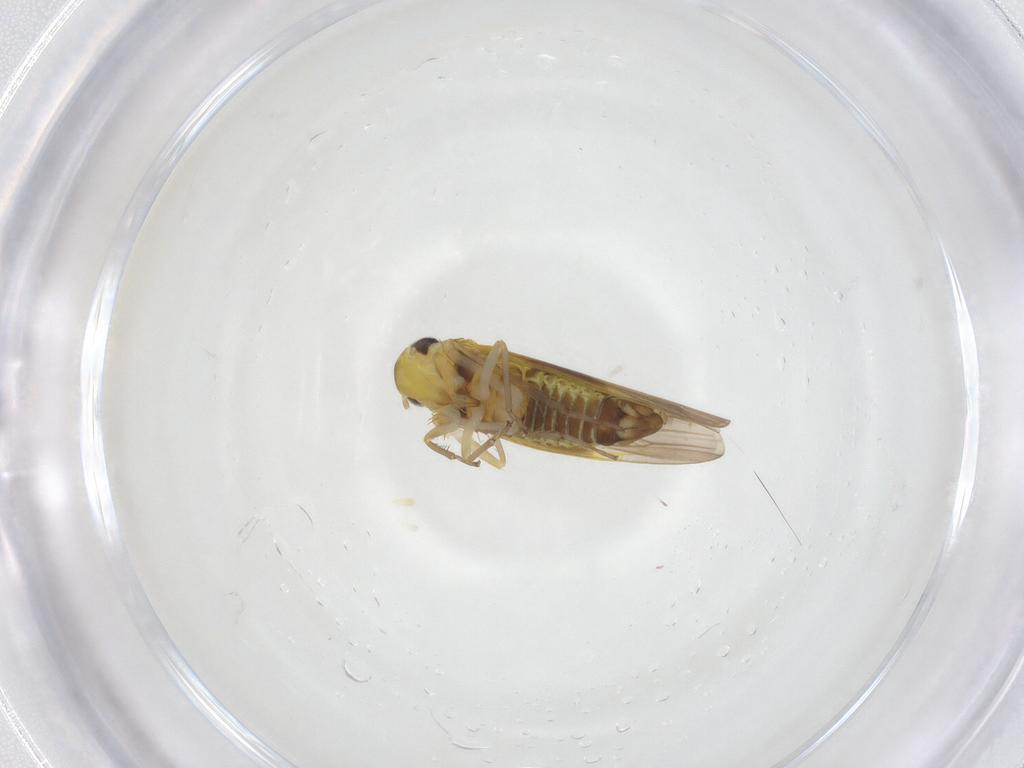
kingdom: Animalia
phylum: Arthropoda
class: Insecta
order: Hemiptera
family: Cicadellidae
